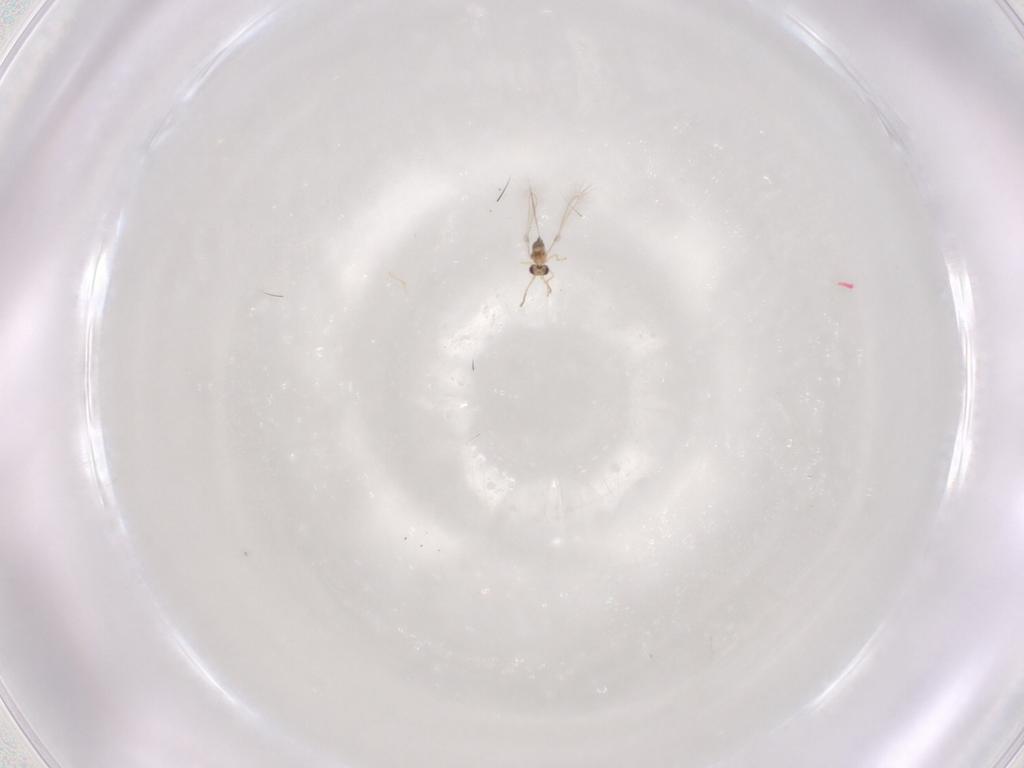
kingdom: Animalia
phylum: Arthropoda
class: Insecta
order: Hymenoptera
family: Mymaridae
